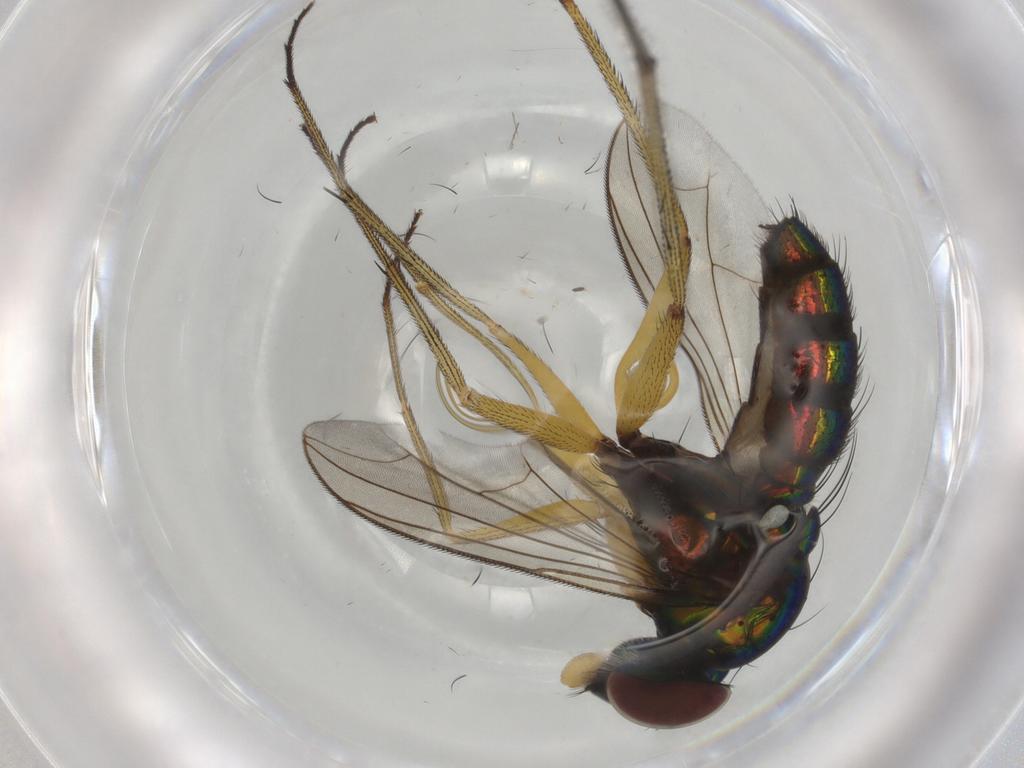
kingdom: Animalia
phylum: Arthropoda
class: Insecta
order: Diptera
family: Dolichopodidae
